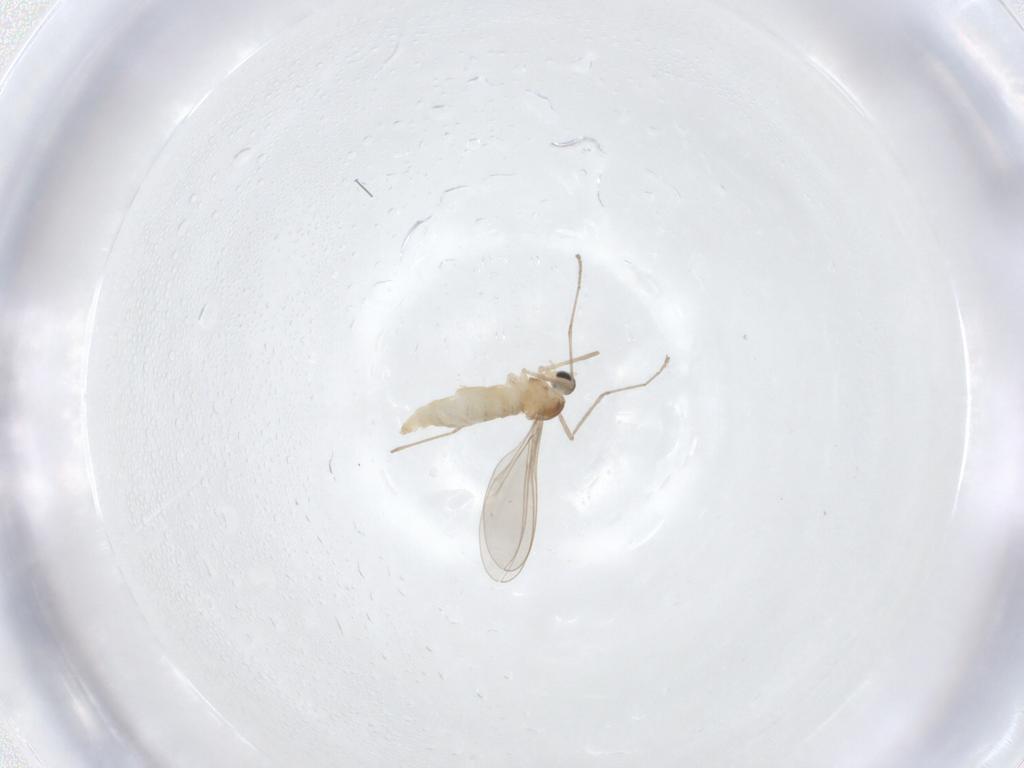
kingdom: Animalia
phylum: Arthropoda
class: Insecta
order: Diptera
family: Cecidomyiidae
